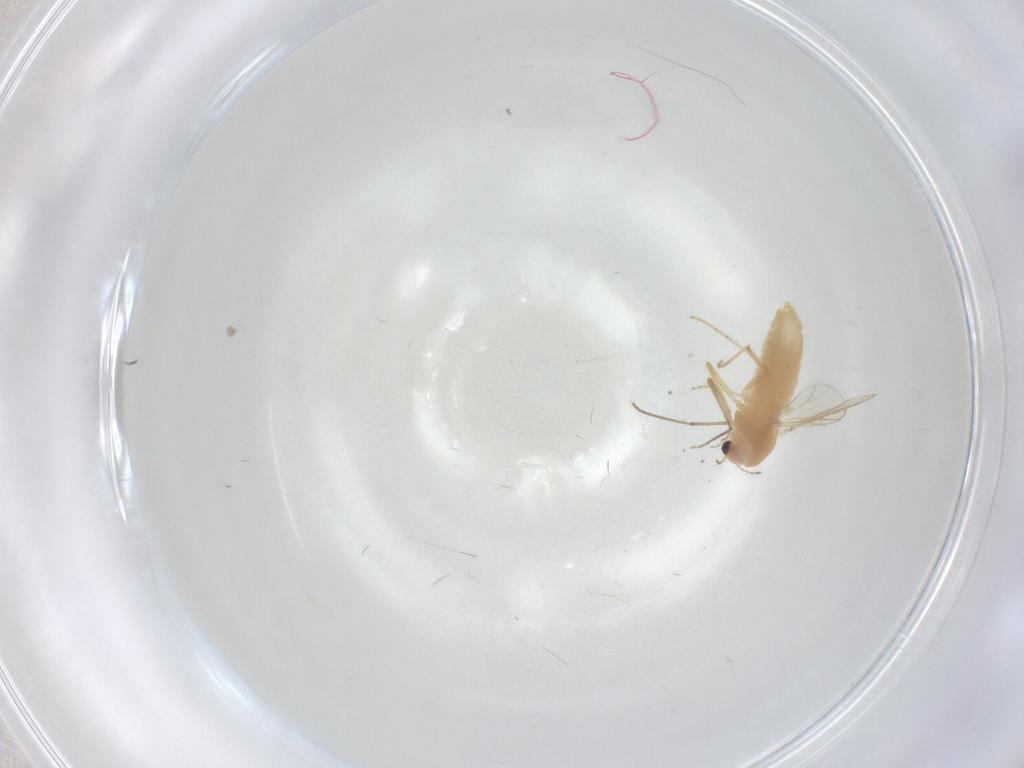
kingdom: Animalia
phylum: Arthropoda
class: Insecta
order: Diptera
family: Chironomidae
